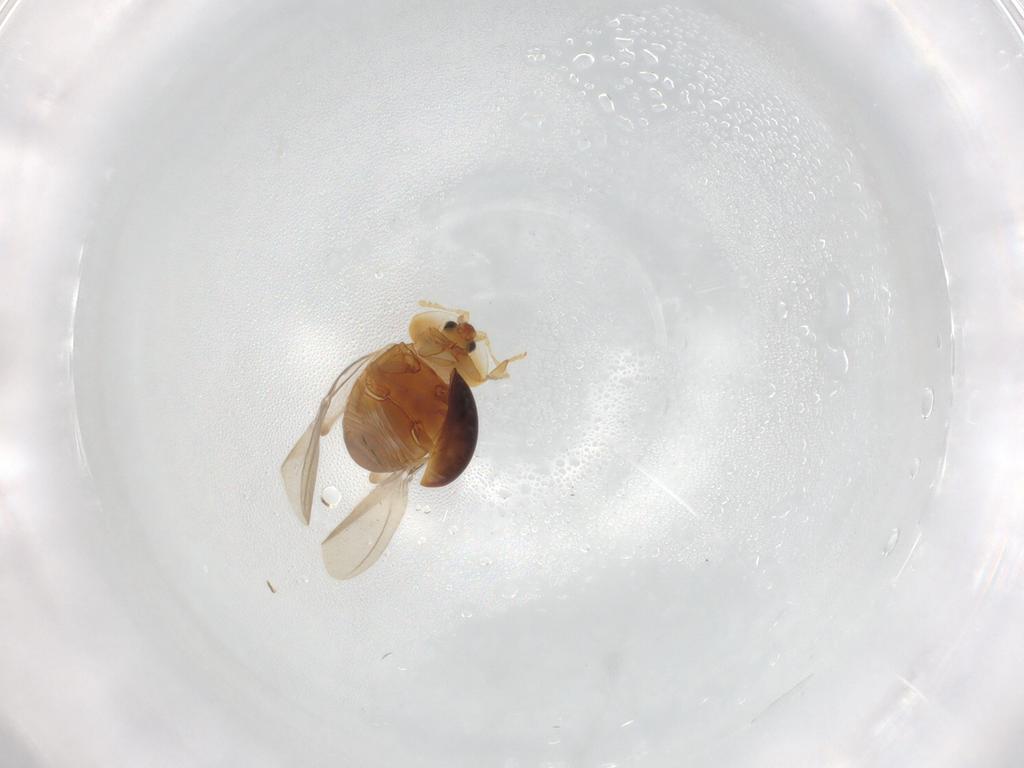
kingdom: Animalia
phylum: Arthropoda
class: Insecta
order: Coleoptera
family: Corylophidae
